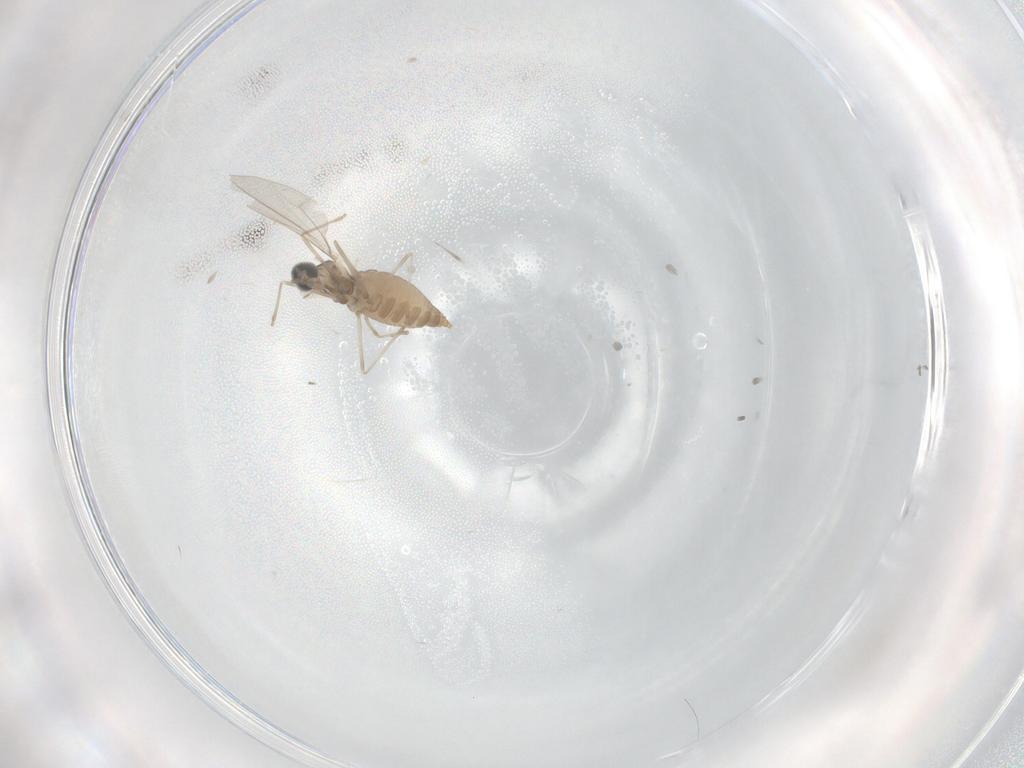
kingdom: Animalia
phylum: Arthropoda
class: Insecta
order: Diptera
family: Cecidomyiidae
